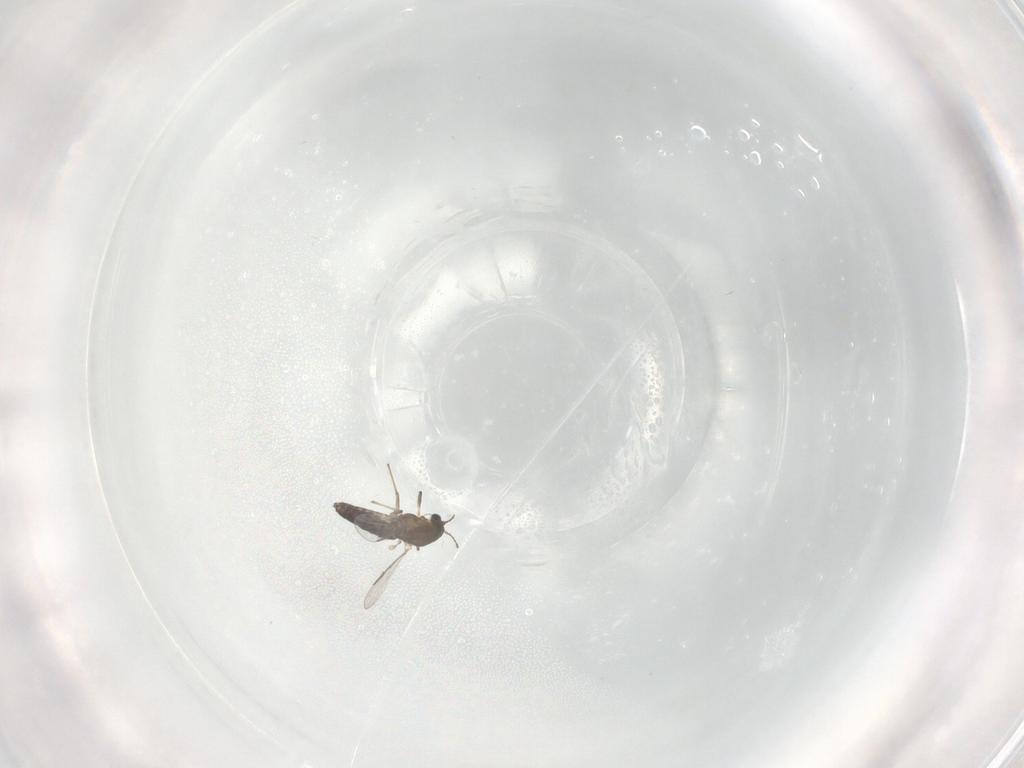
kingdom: Animalia
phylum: Arthropoda
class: Insecta
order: Diptera
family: Chironomidae
